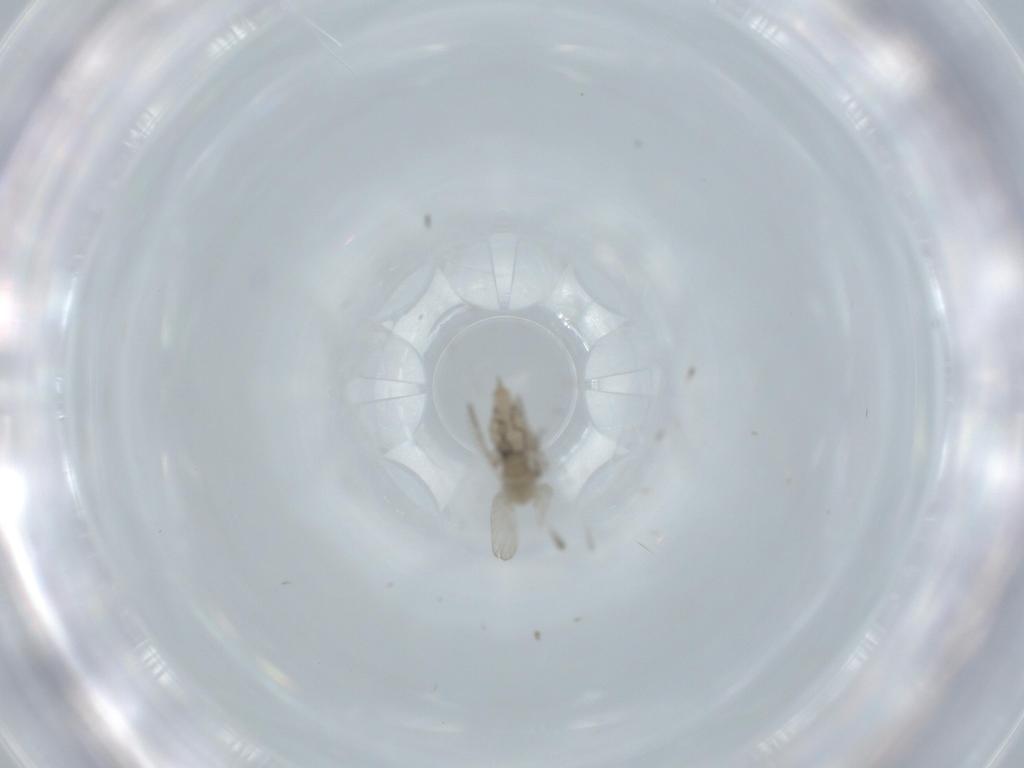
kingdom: Animalia
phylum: Arthropoda
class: Insecta
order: Diptera
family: Psychodidae
